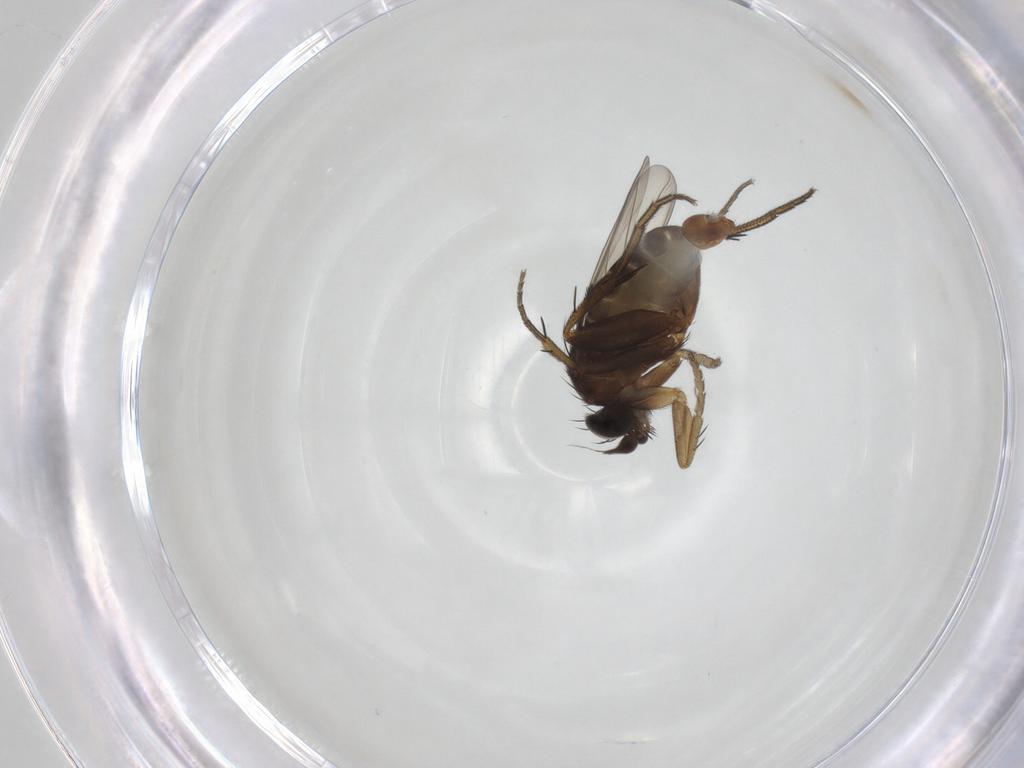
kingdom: Animalia
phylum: Arthropoda
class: Insecta
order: Diptera
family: Phoridae
